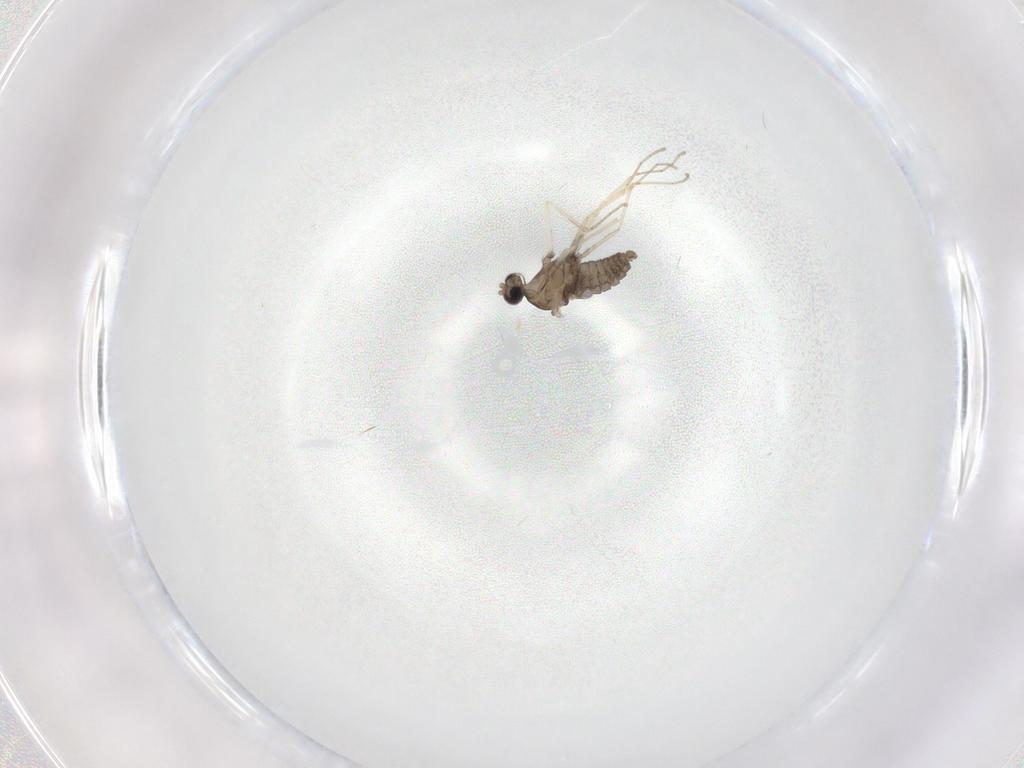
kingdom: Animalia
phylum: Arthropoda
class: Insecta
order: Diptera
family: Cecidomyiidae
